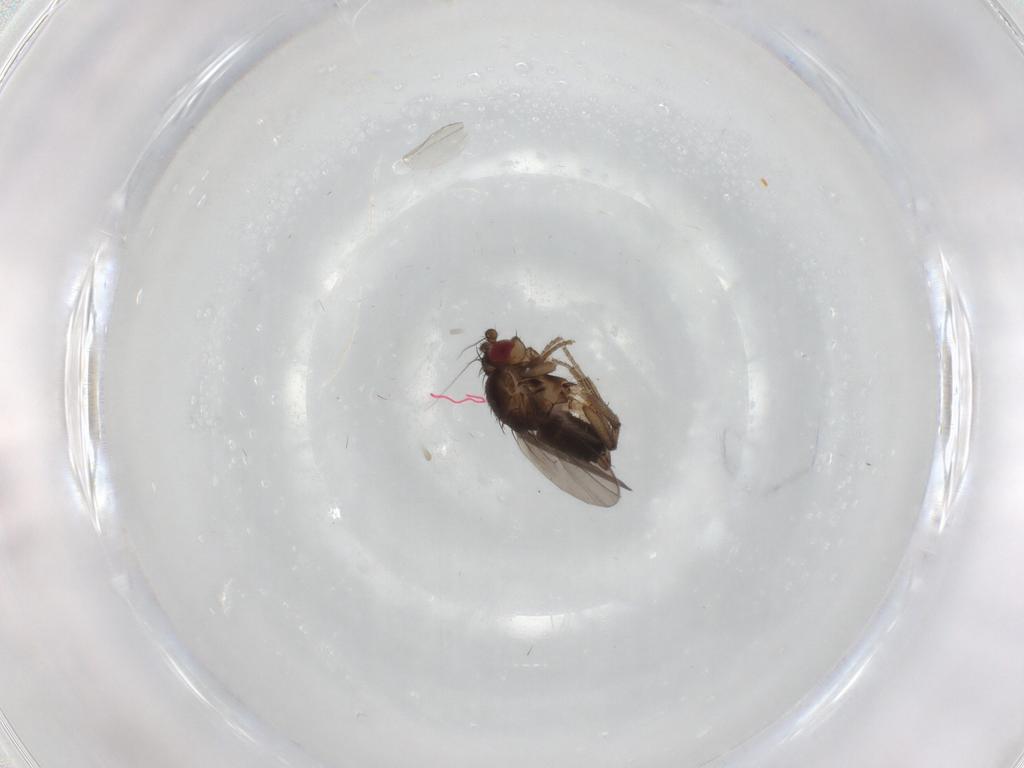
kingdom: Animalia
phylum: Arthropoda
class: Insecta
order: Diptera
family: Sphaeroceridae
